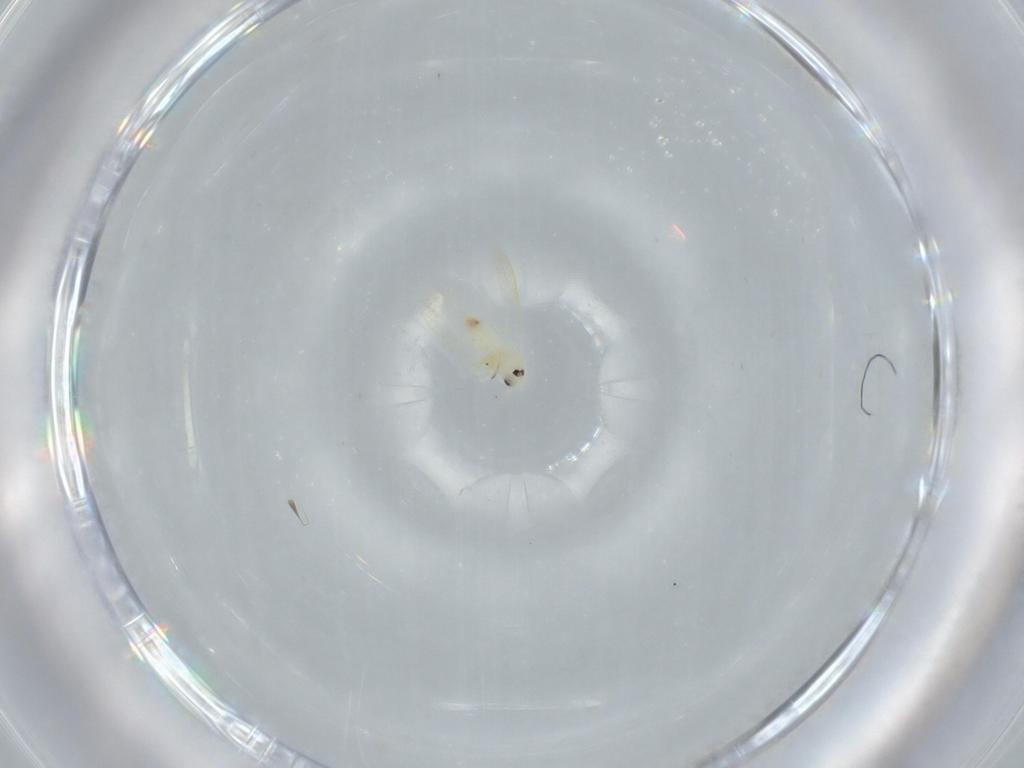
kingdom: Animalia
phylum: Arthropoda
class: Insecta
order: Hemiptera
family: Aleyrodidae
